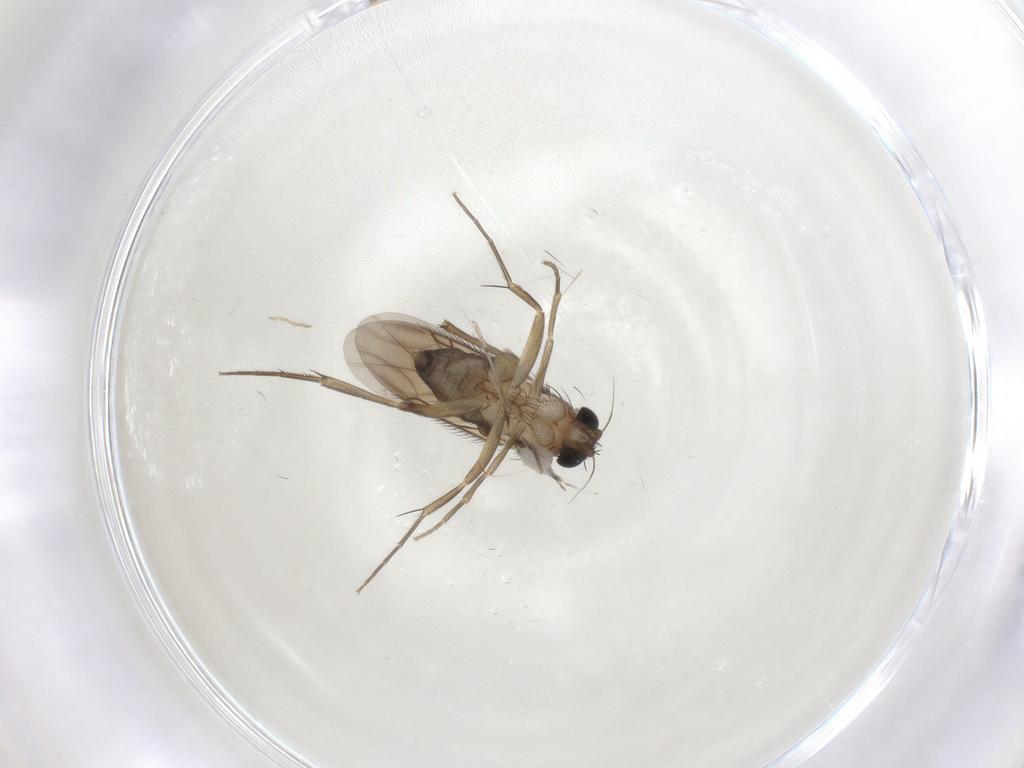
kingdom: Animalia
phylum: Arthropoda
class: Insecta
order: Diptera
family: Phoridae
